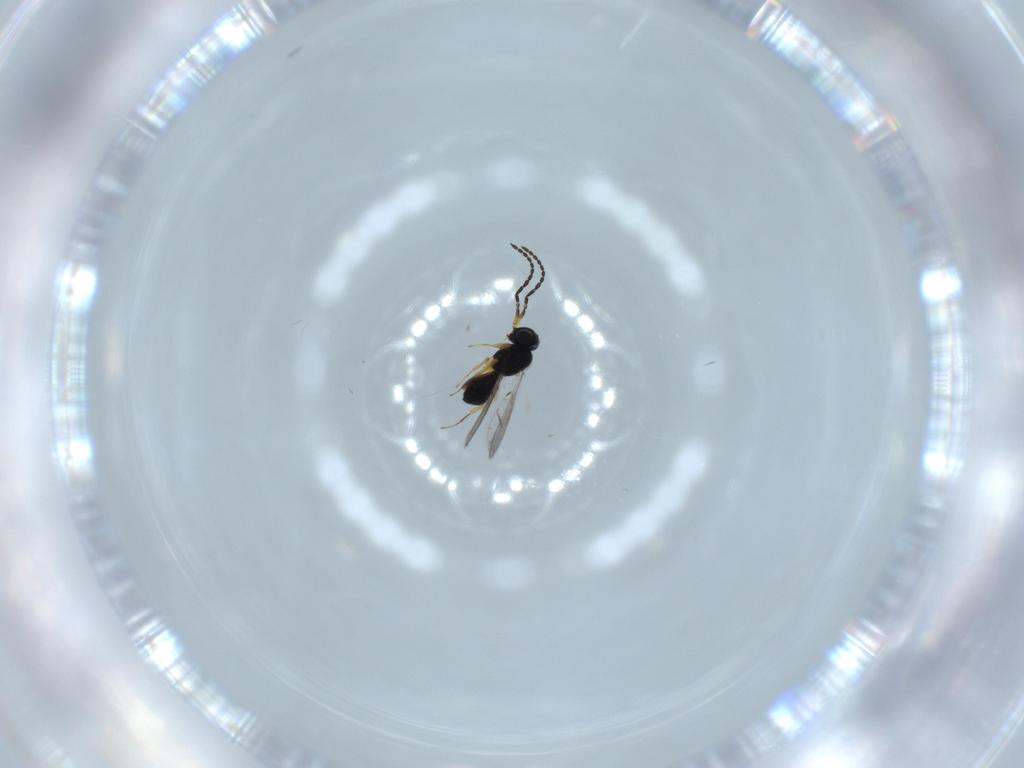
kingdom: Animalia
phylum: Arthropoda
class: Insecta
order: Hymenoptera
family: Scelionidae
